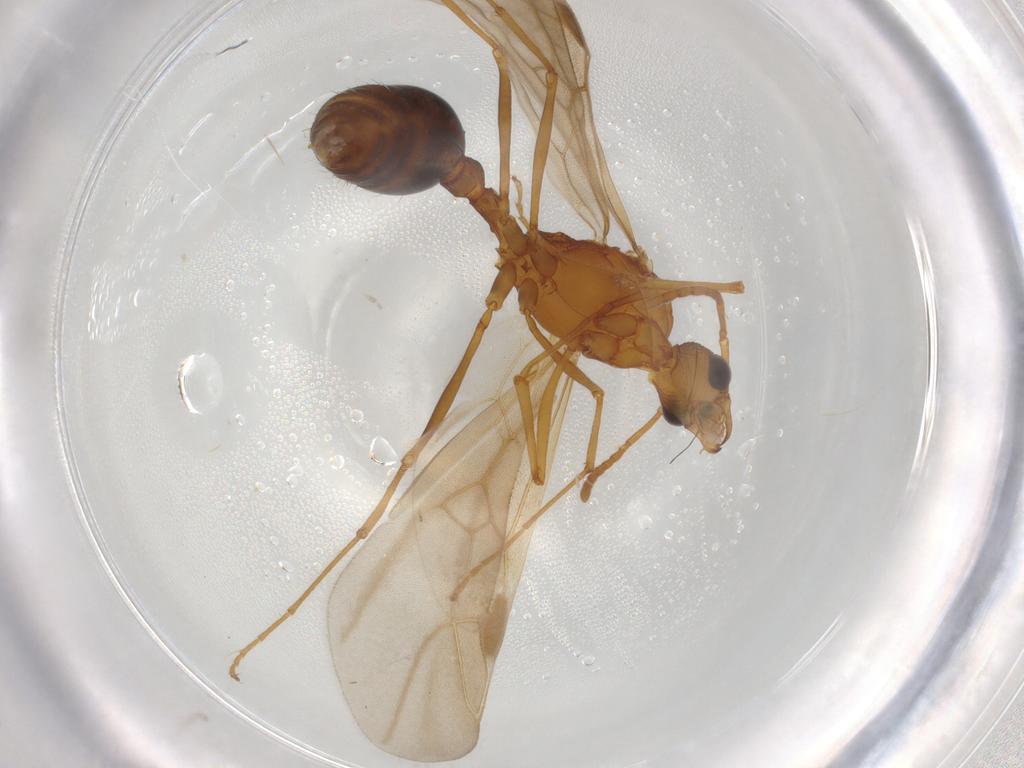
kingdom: Animalia
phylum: Arthropoda
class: Insecta
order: Hymenoptera
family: Formicidae
